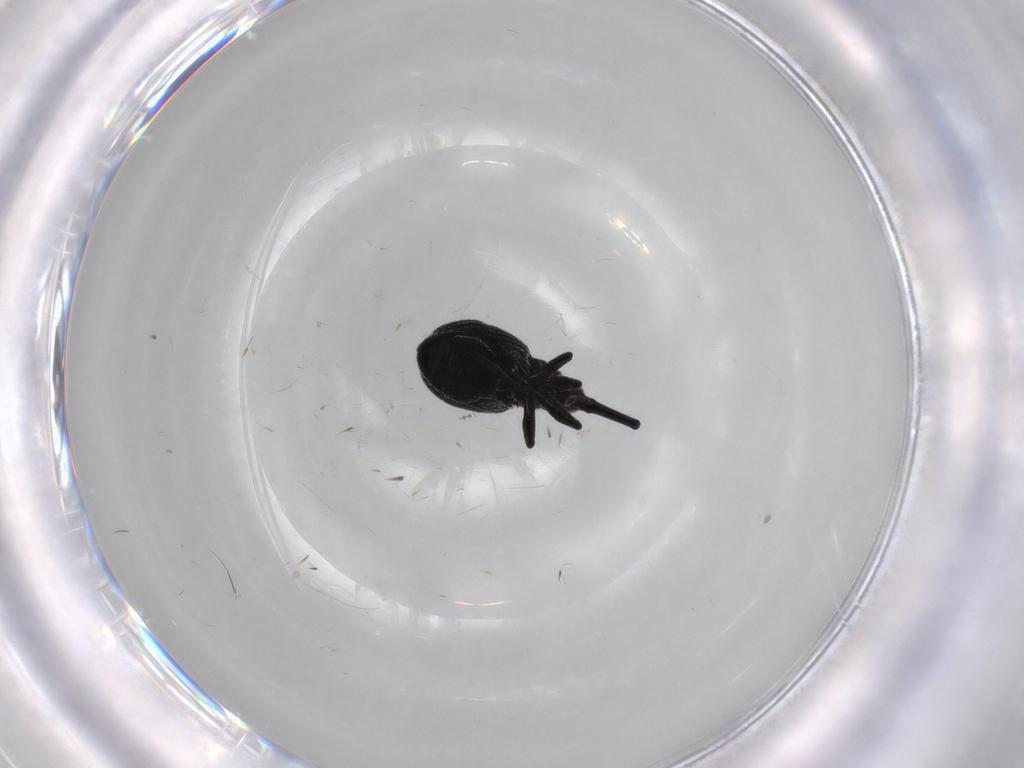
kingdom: Animalia
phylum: Arthropoda
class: Insecta
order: Coleoptera
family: Brentidae
